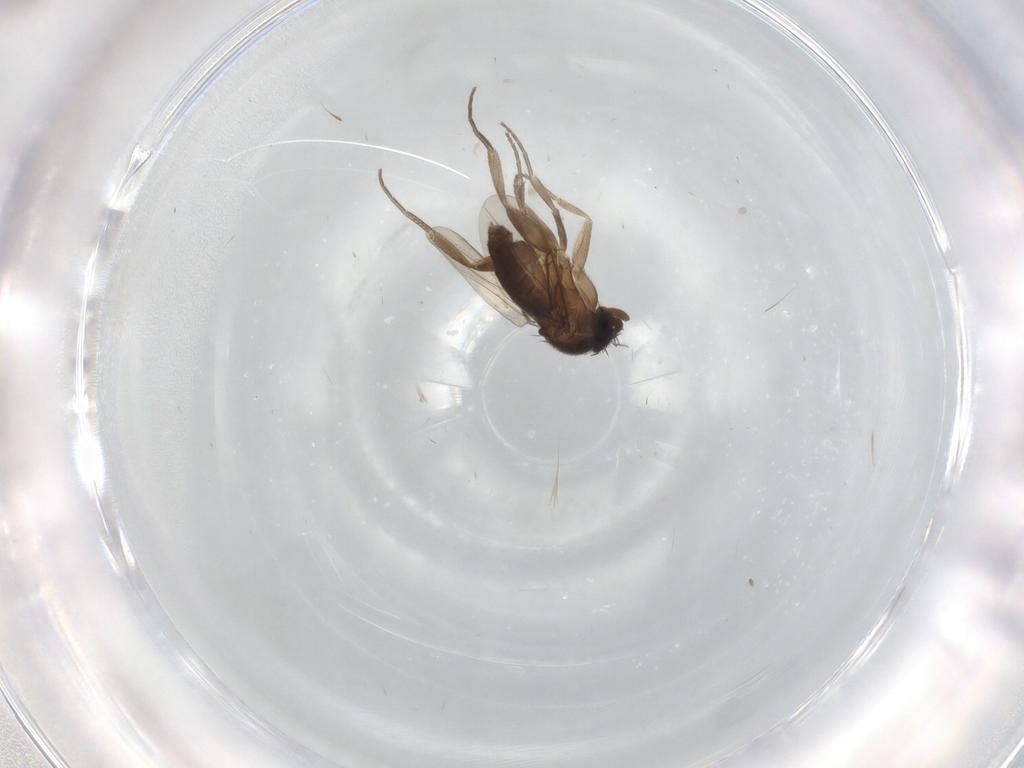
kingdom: Animalia
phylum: Arthropoda
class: Insecta
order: Diptera
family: Phoridae
